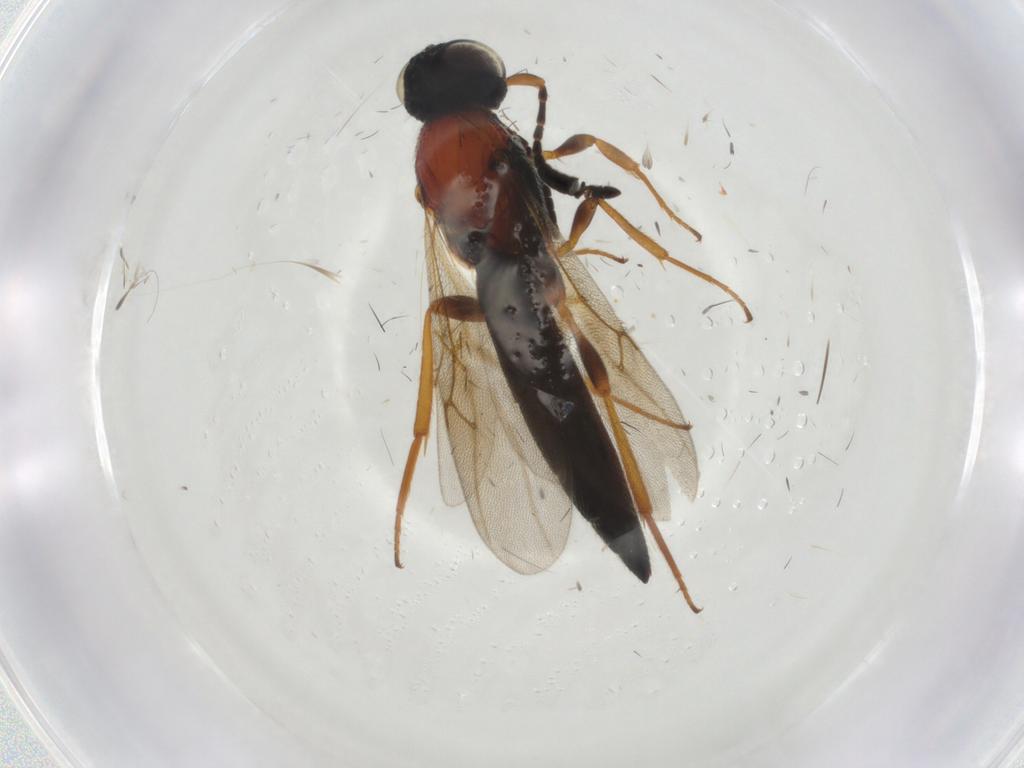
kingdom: Animalia
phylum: Arthropoda
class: Insecta
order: Hymenoptera
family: Scelionidae
